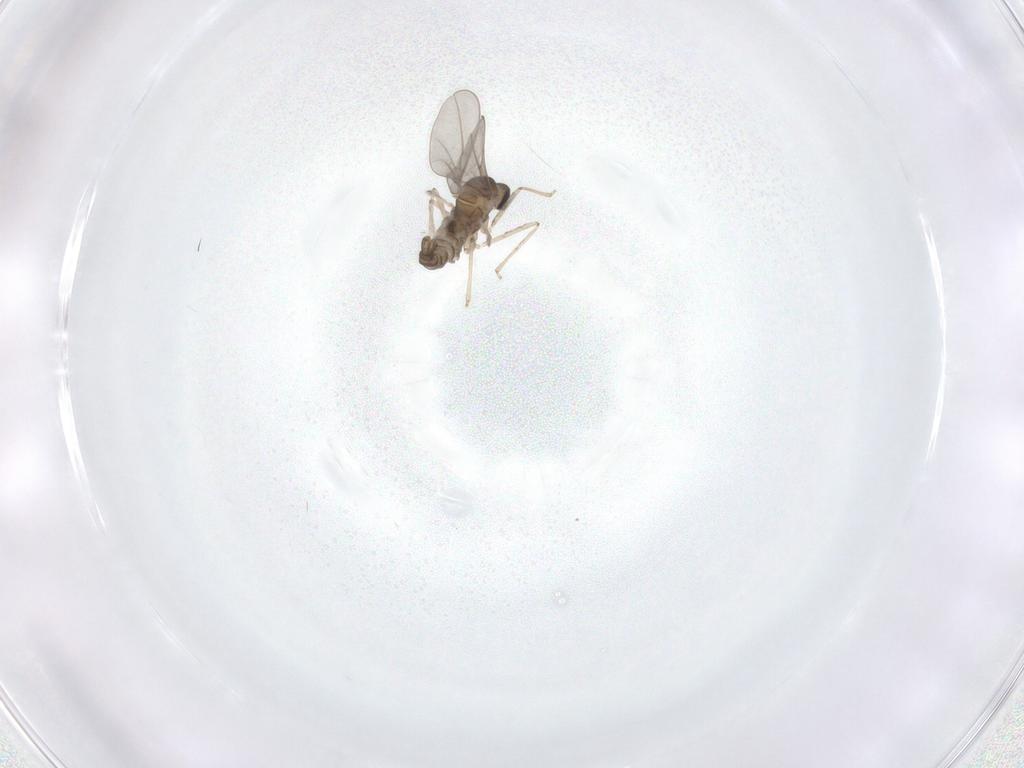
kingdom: Animalia
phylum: Arthropoda
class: Insecta
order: Diptera
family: Cecidomyiidae
